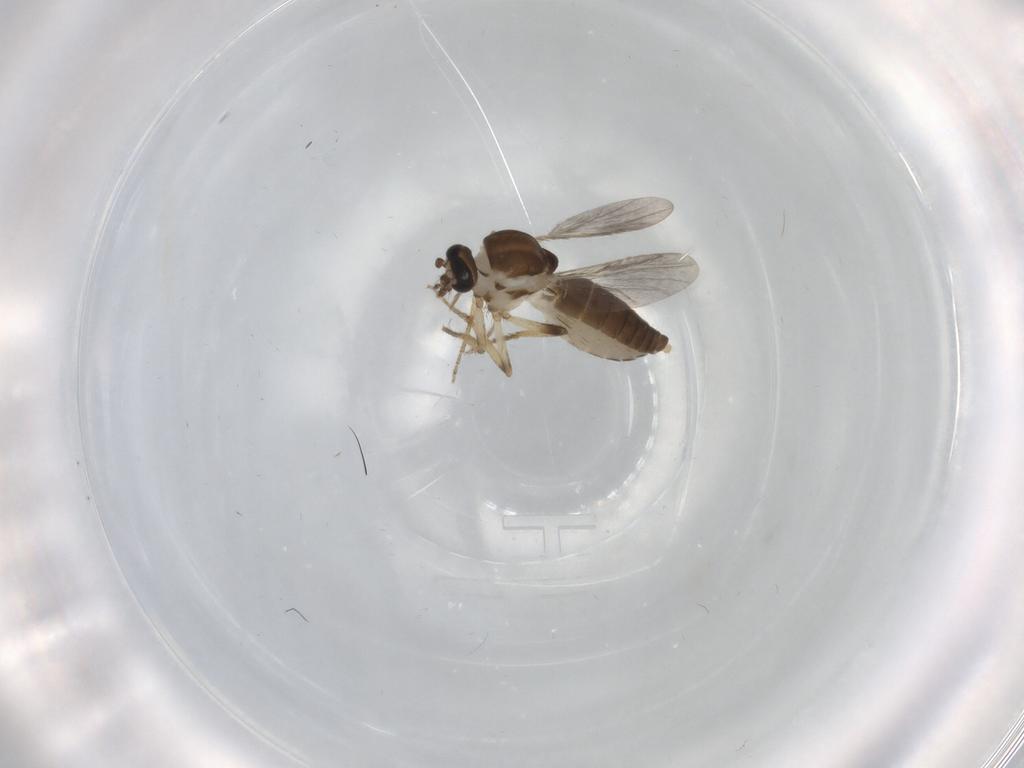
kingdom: Animalia
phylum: Arthropoda
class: Insecta
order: Diptera
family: Ceratopogonidae
